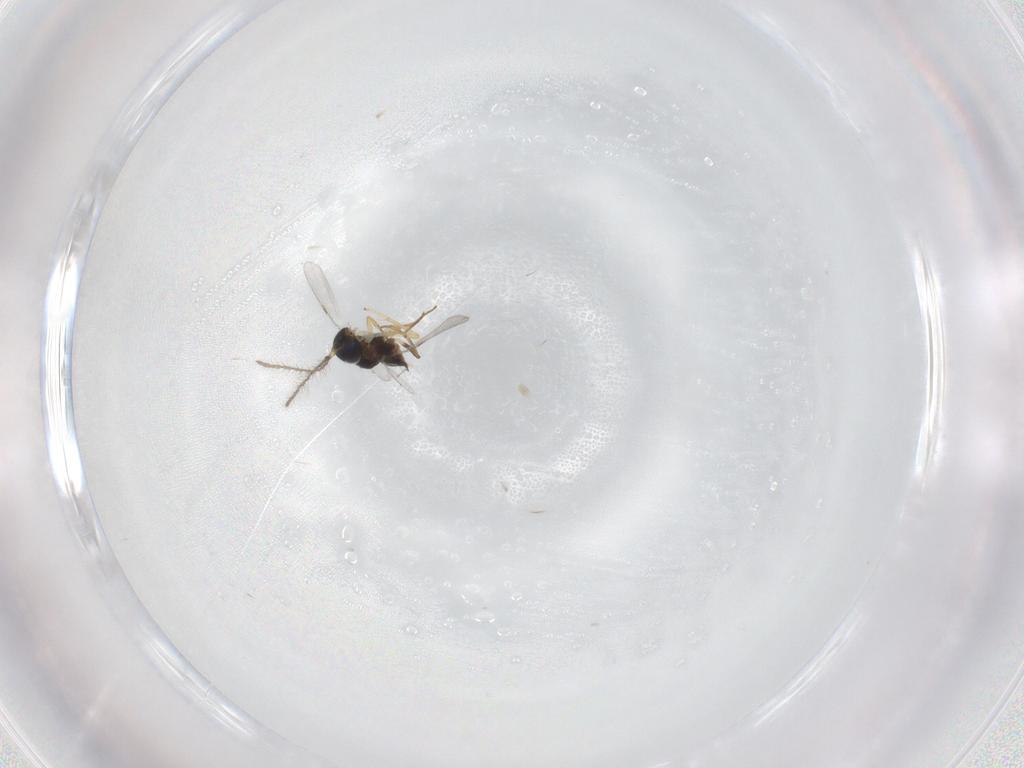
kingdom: Animalia
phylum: Arthropoda
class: Insecta
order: Hymenoptera
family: Encyrtidae
